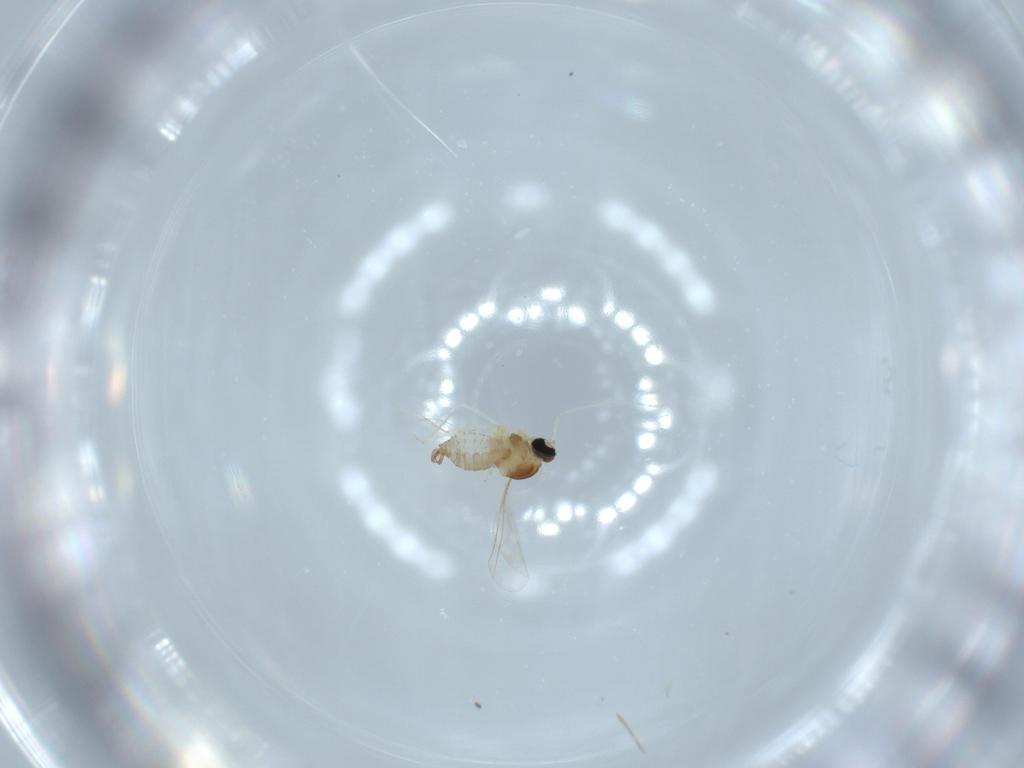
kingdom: Animalia
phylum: Arthropoda
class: Insecta
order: Diptera
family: Cecidomyiidae
